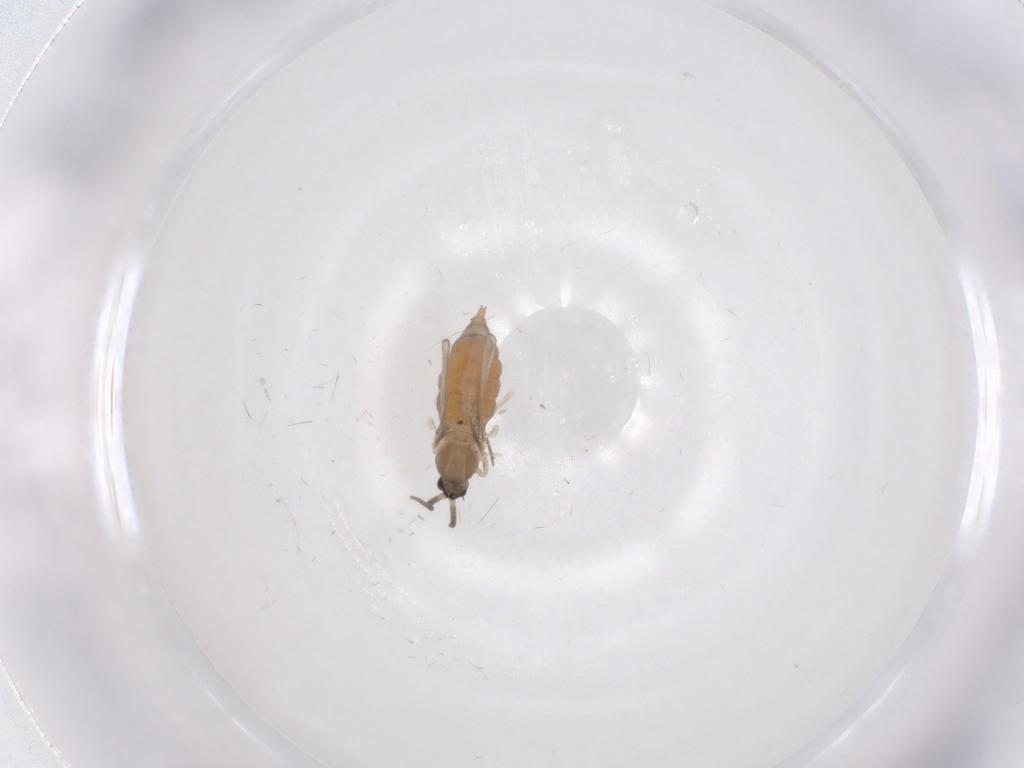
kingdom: Animalia
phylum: Arthropoda
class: Insecta
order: Diptera
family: Cecidomyiidae
